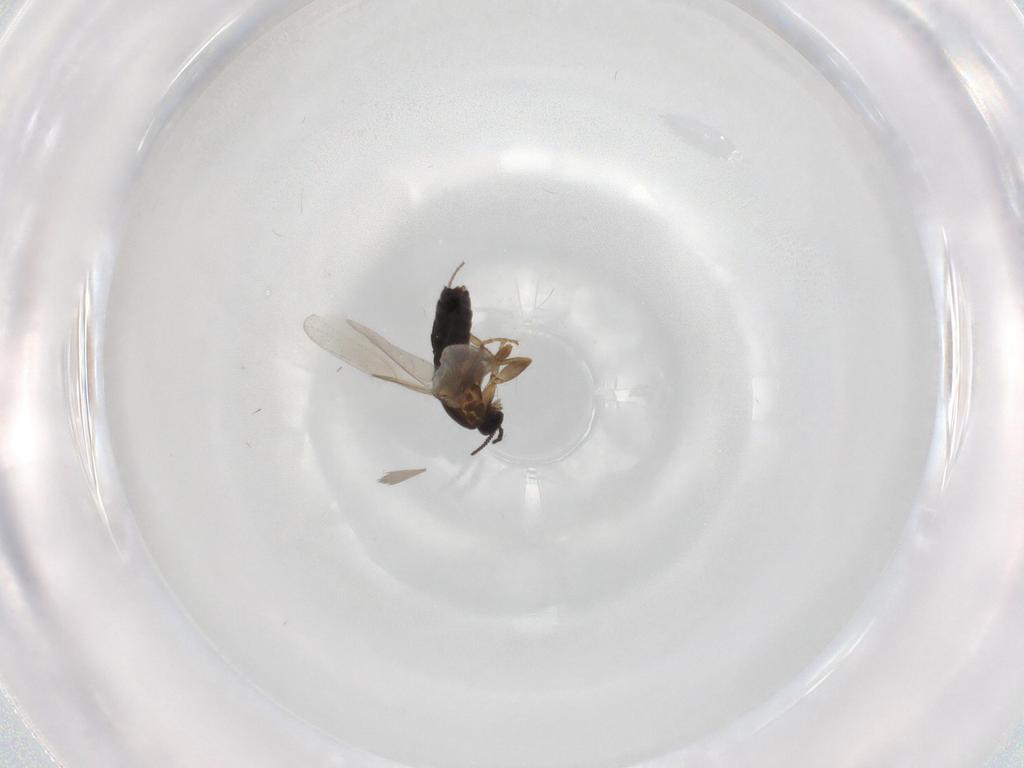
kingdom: Animalia
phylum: Arthropoda
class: Insecta
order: Diptera
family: Scatopsidae
